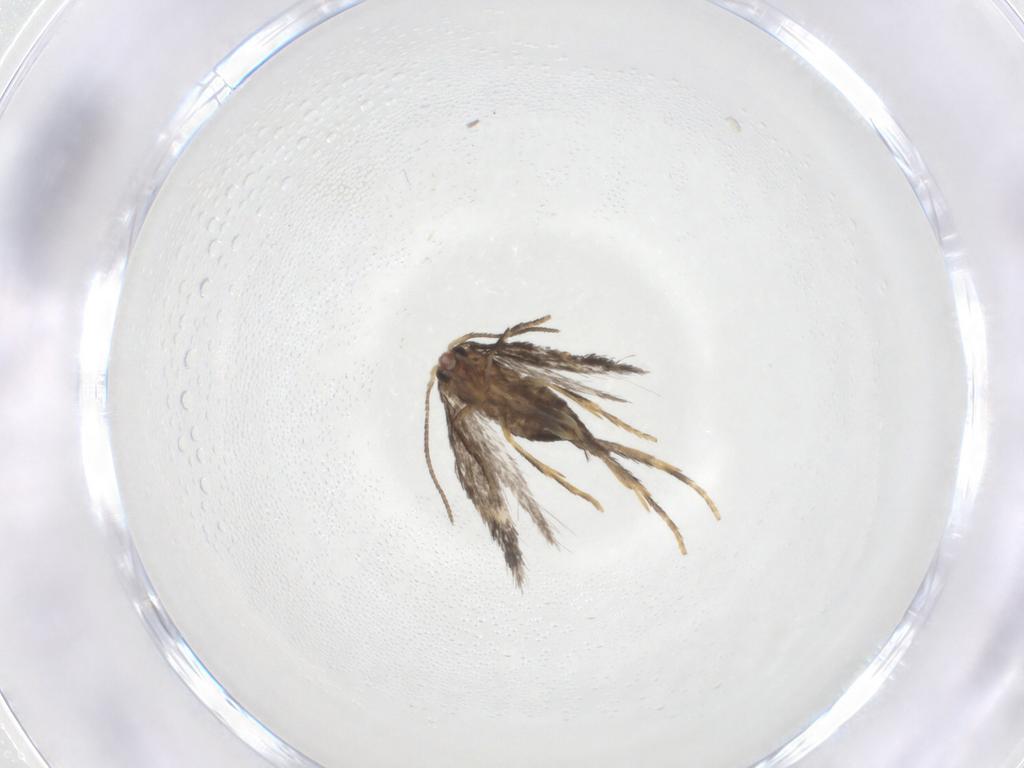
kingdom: Animalia
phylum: Arthropoda
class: Insecta
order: Lepidoptera
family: Nepticulidae
